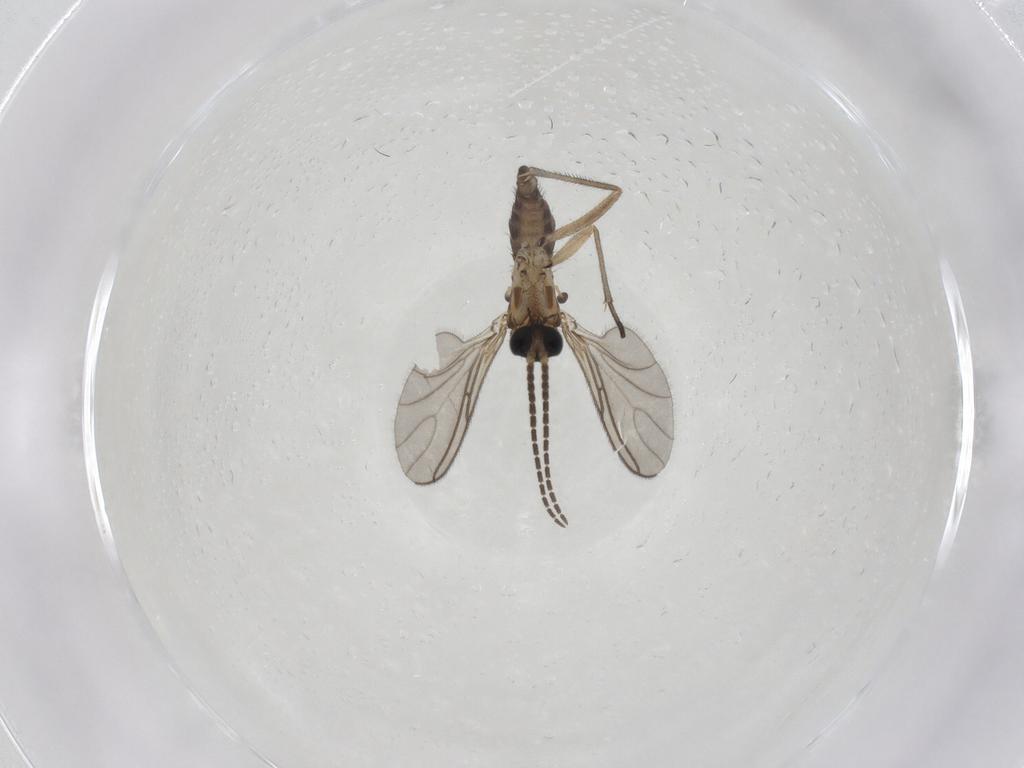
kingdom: Animalia
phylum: Arthropoda
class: Insecta
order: Diptera
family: Sciaridae
